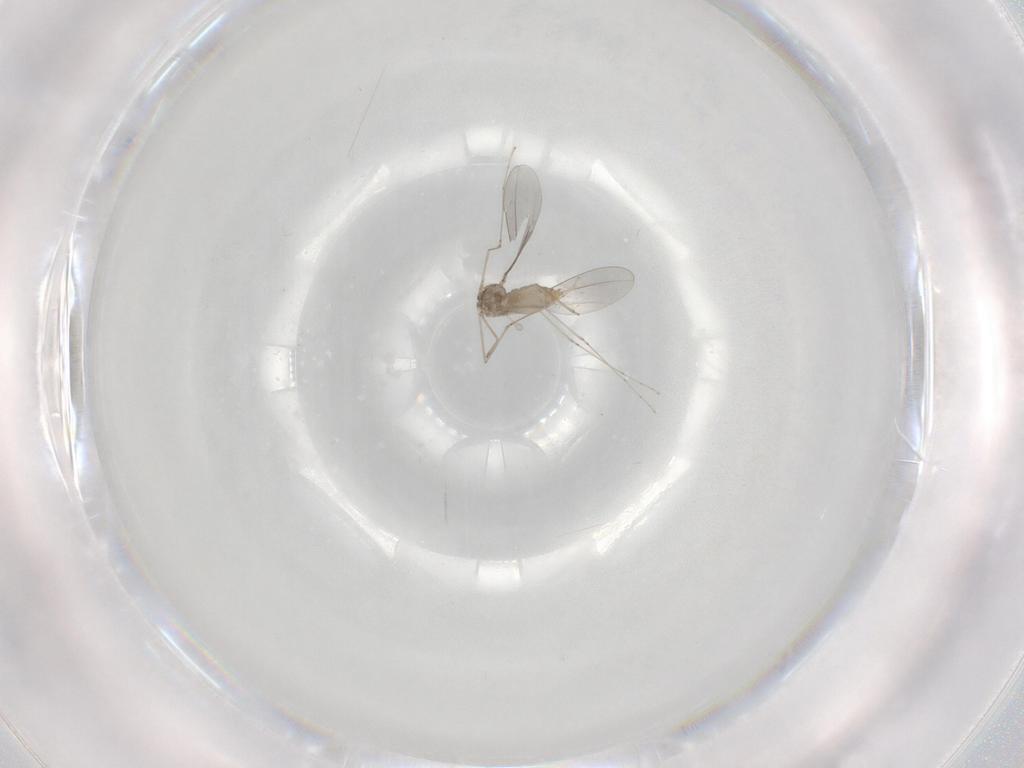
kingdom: Animalia
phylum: Arthropoda
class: Insecta
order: Diptera
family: Cecidomyiidae
